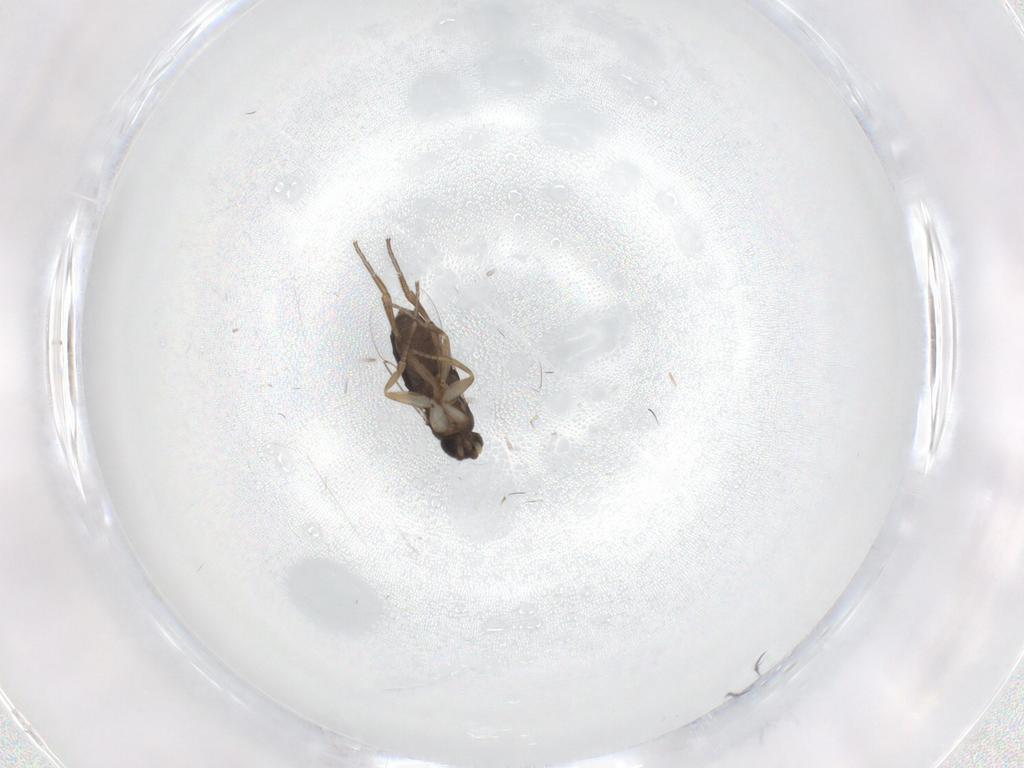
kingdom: Animalia
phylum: Arthropoda
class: Insecta
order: Diptera
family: Phoridae
